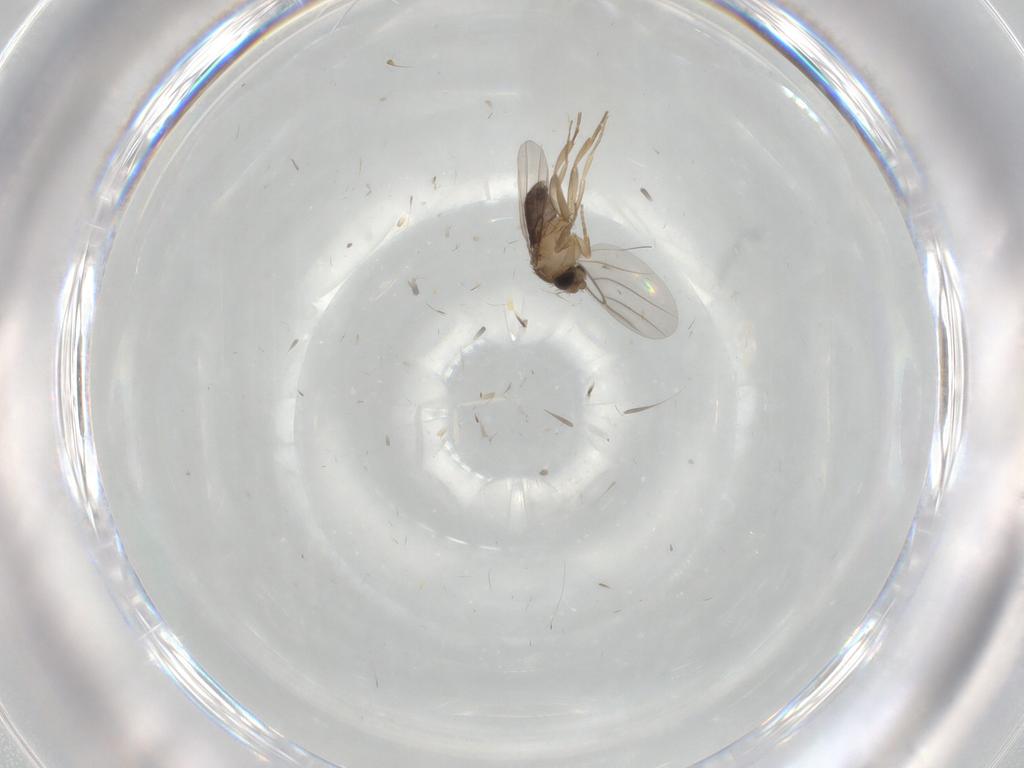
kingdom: Animalia
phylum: Arthropoda
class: Insecta
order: Diptera
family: Phoridae
